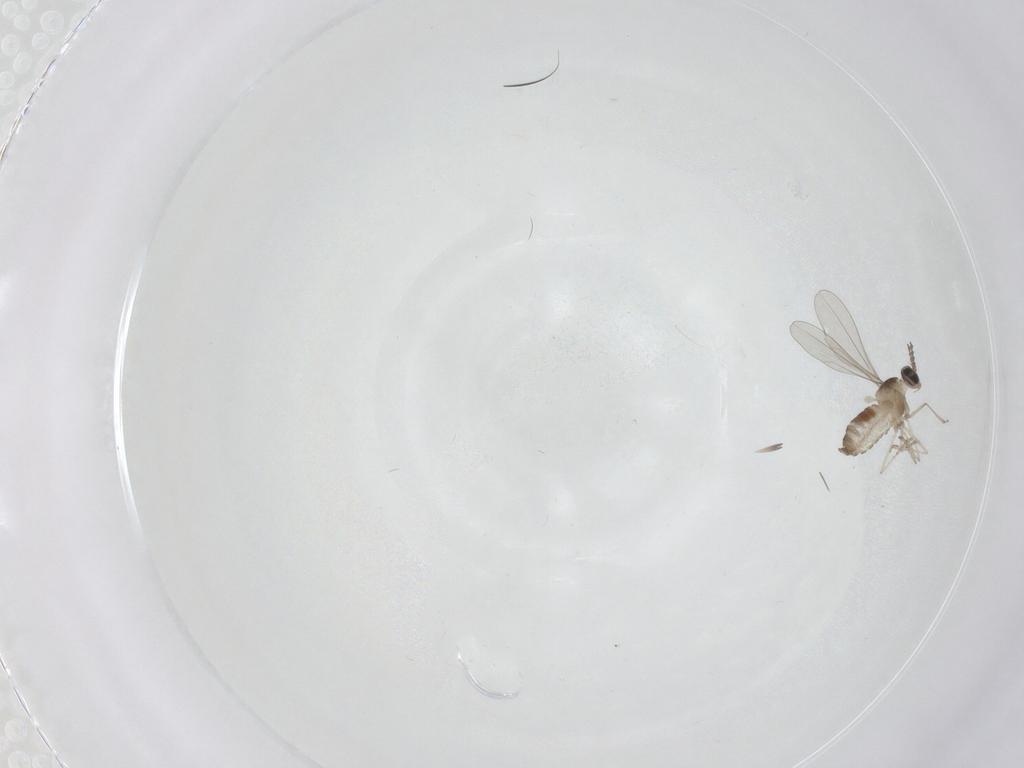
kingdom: Animalia
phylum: Arthropoda
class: Insecta
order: Diptera
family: Cecidomyiidae
